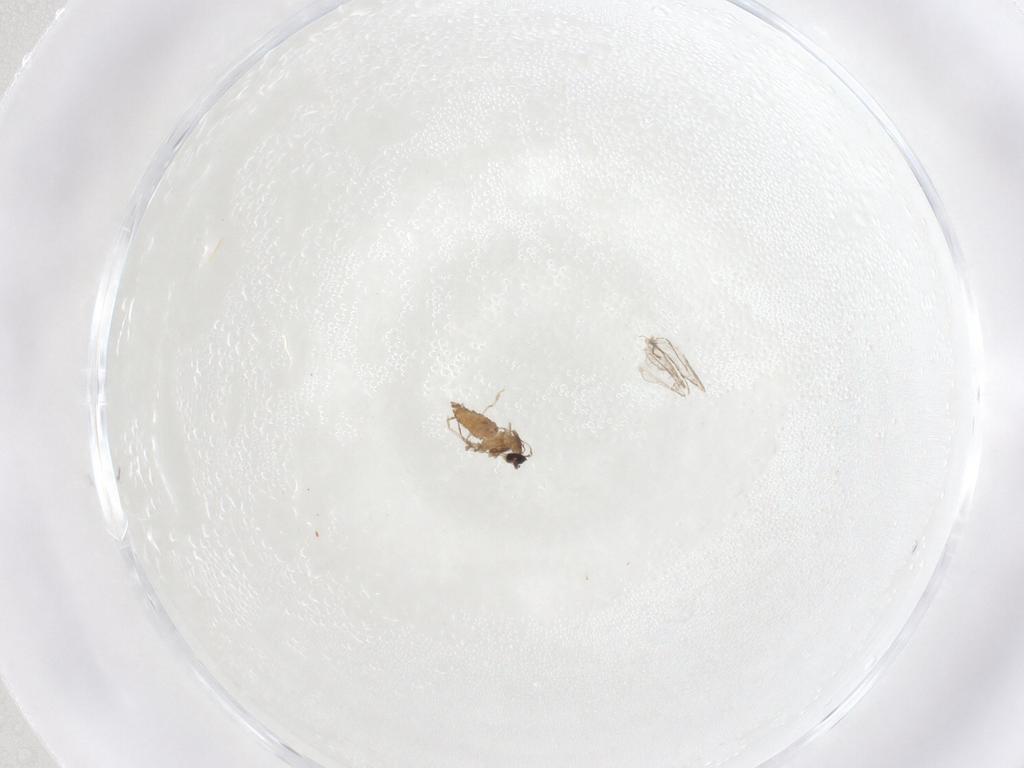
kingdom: Animalia
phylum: Arthropoda
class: Insecta
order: Diptera
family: Cecidomyiidae
